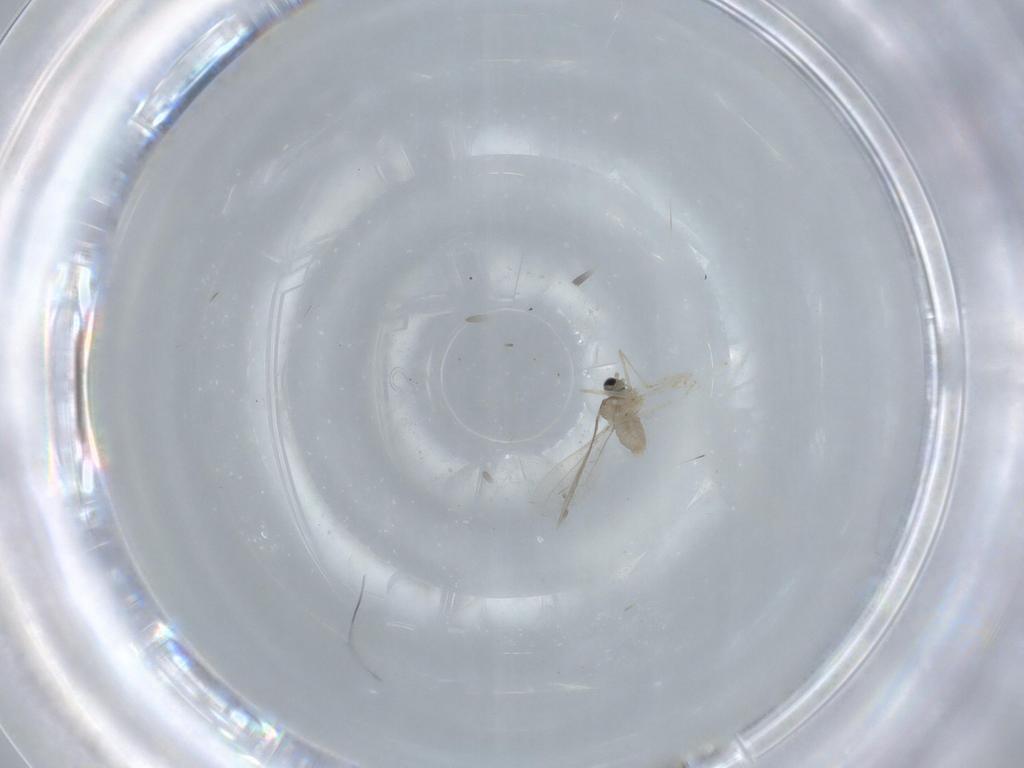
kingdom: Animalia
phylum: Arthropoda
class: Insecta
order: Diptera
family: Cecidomyiidae
